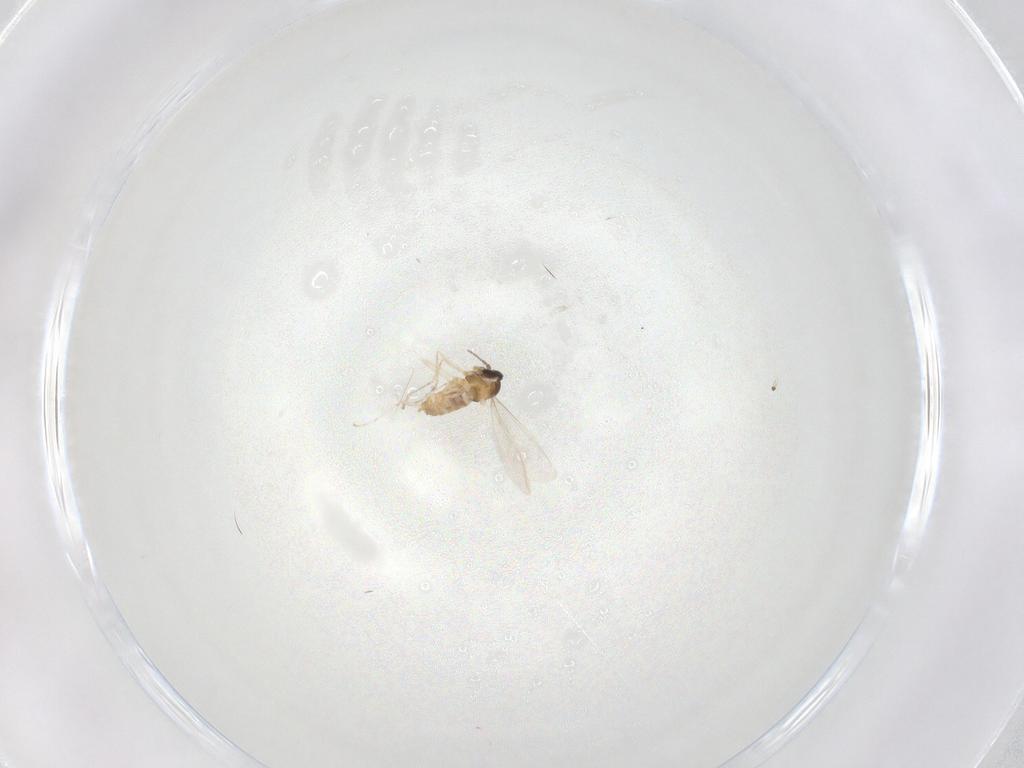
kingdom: Animalia
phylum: Arthropoda
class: Insecta
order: Diptera
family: Cecidomyiidae
